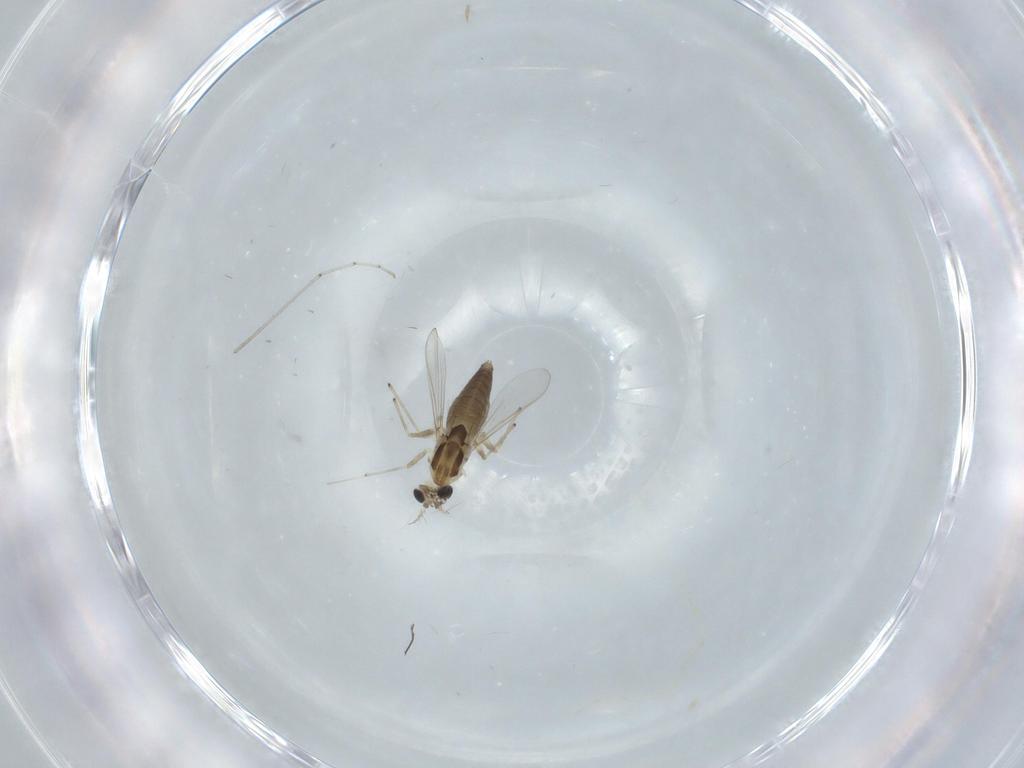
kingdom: Animalia
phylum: Arthropoda
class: Insecta
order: Diptera
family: Chironomidae
